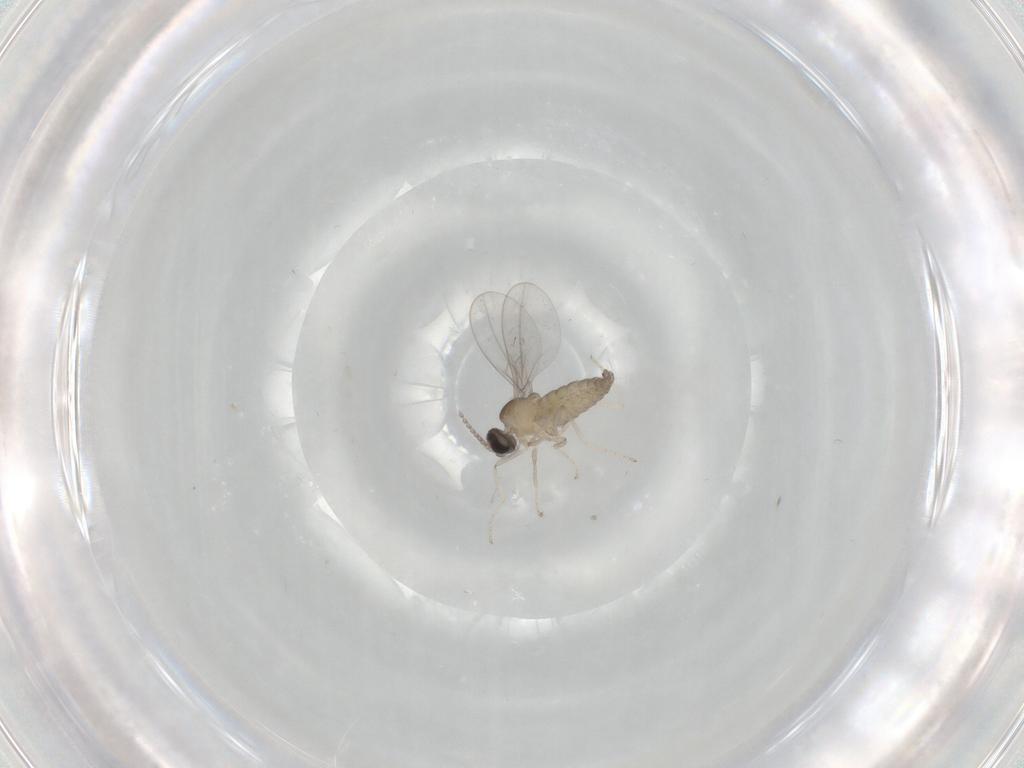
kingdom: Animalia
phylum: Arthropoda
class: Insecta
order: Diptera
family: Cecidomyiidae
